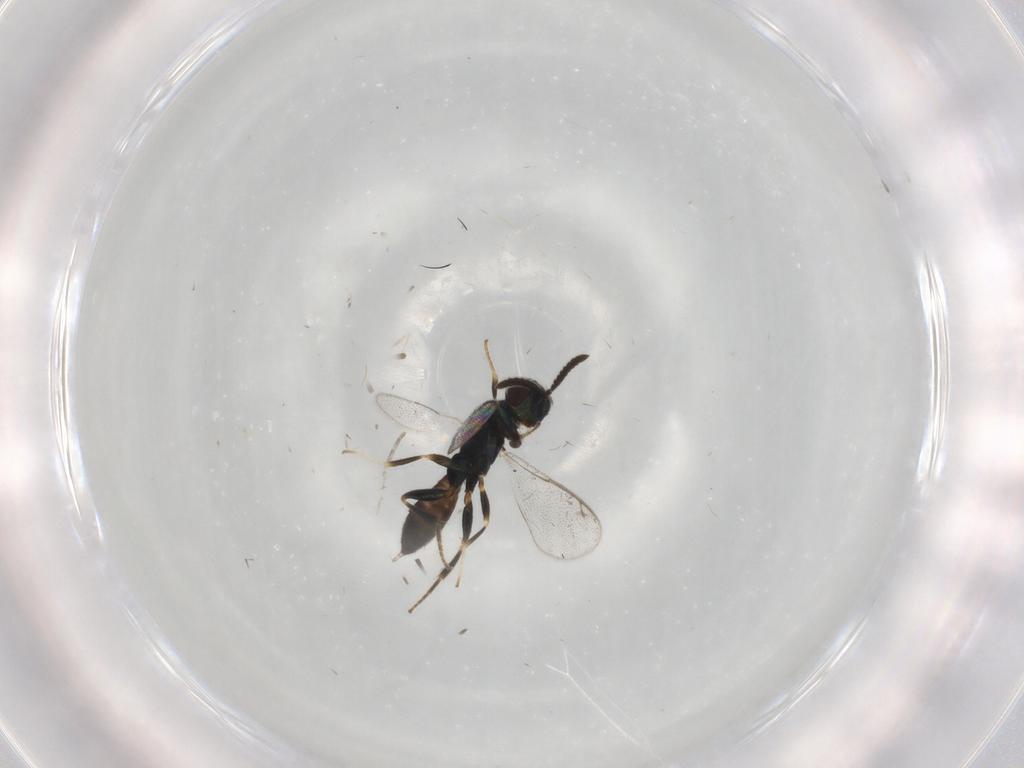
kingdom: Animalia
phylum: Arthropoda
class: Insecta
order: Hymenoptera
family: Cleonyminae
